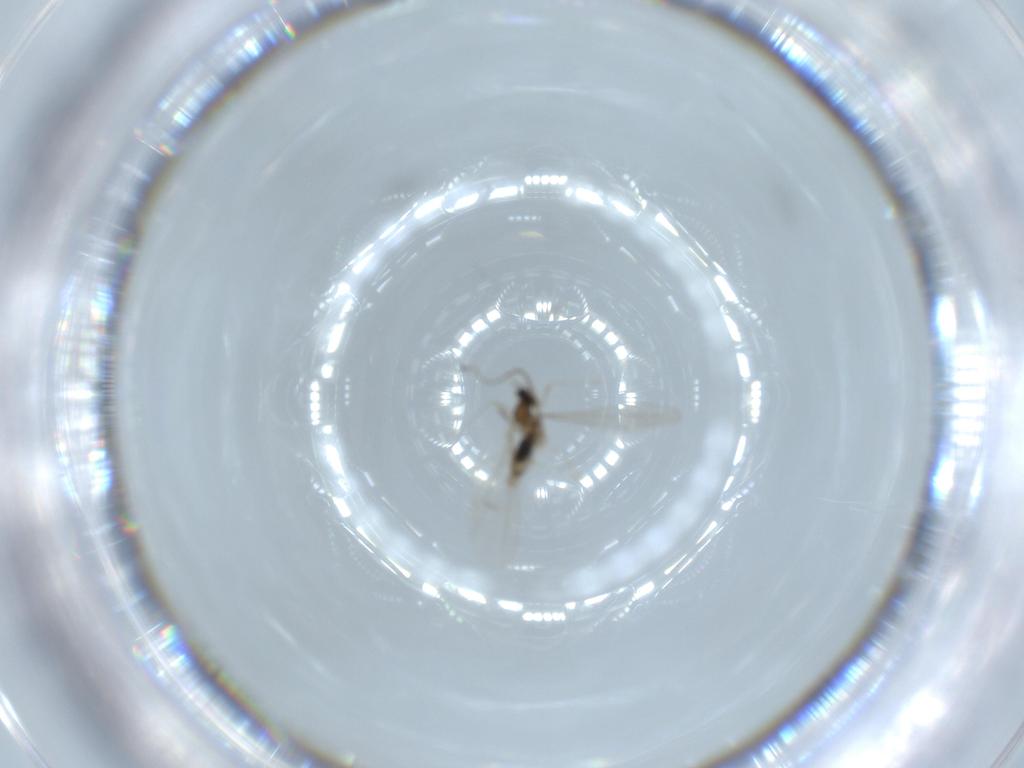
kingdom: Animalia
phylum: Arthropoda
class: Insecta
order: Diptera
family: Cecidomyiidae
